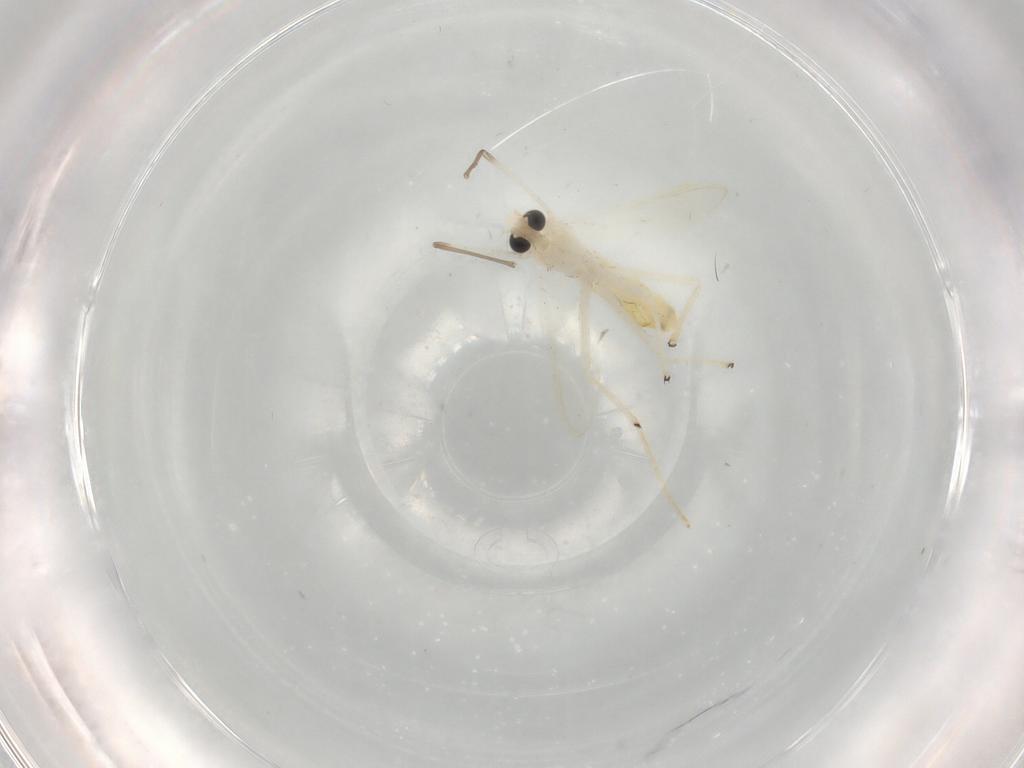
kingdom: Animalia
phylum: Arthropoda
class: Insecta
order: Diptera
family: Chironomidae
